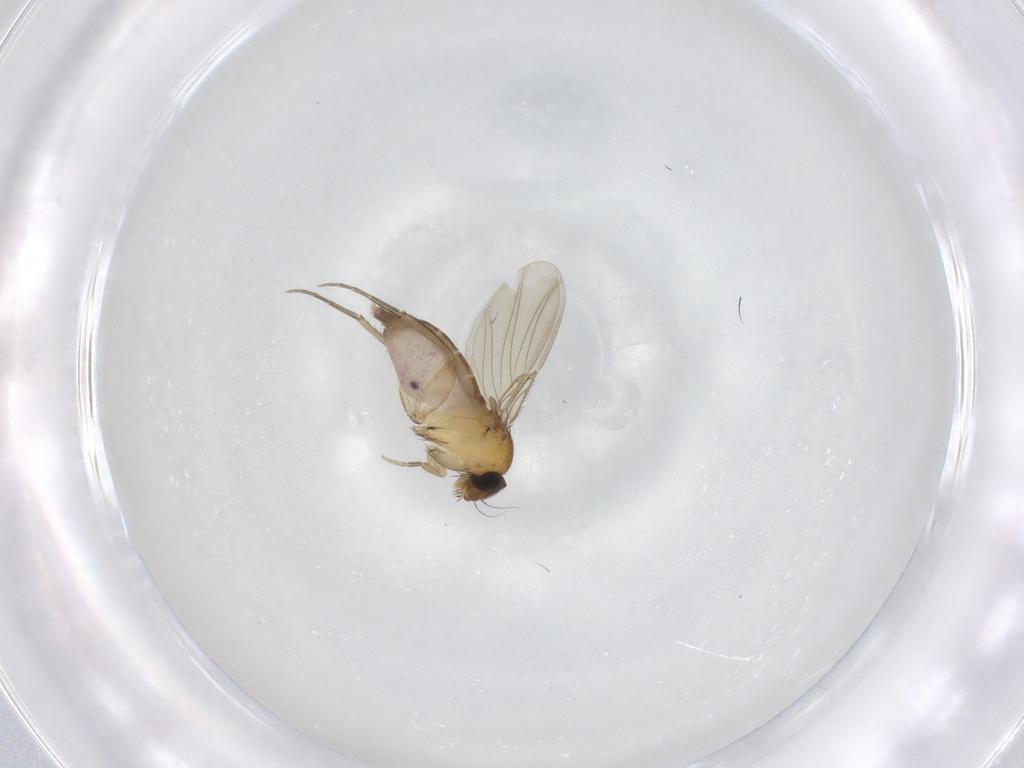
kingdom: Animalia
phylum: Arthropoda
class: Insecta
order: Diptera
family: Phoridae
